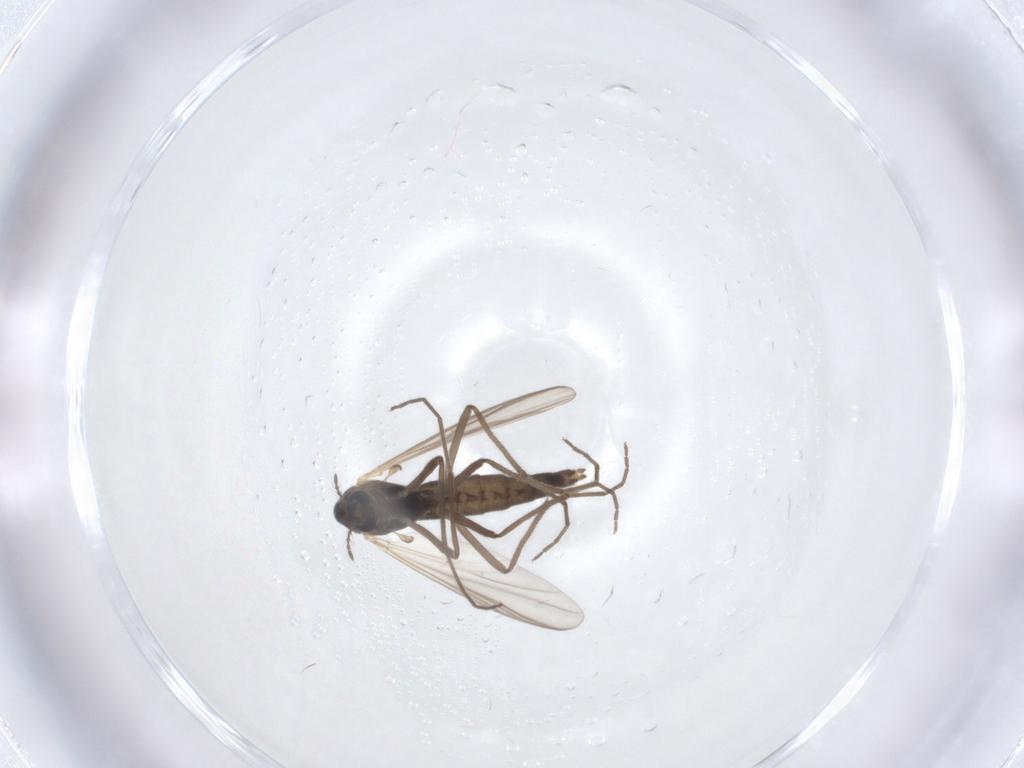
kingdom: Animalia
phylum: Arthropoda
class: Insecta
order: Diptera
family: Chironomidae
